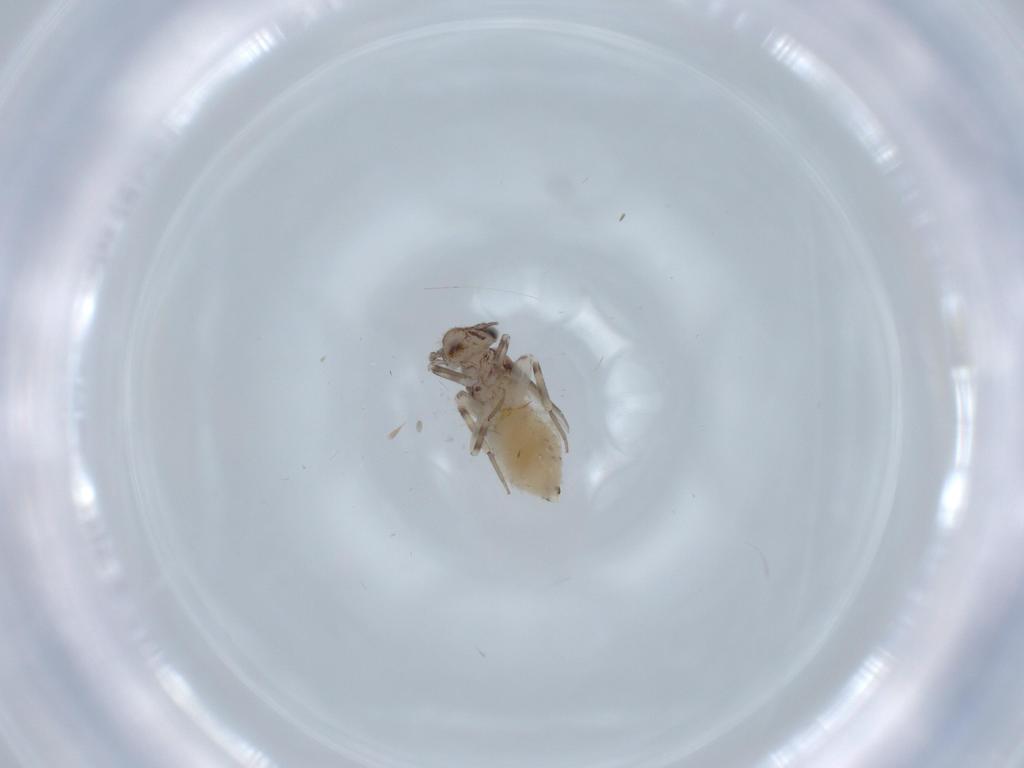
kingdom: Animalia
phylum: Arthropoda
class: Insecta
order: Psocodea
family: Lepidopsocidae
